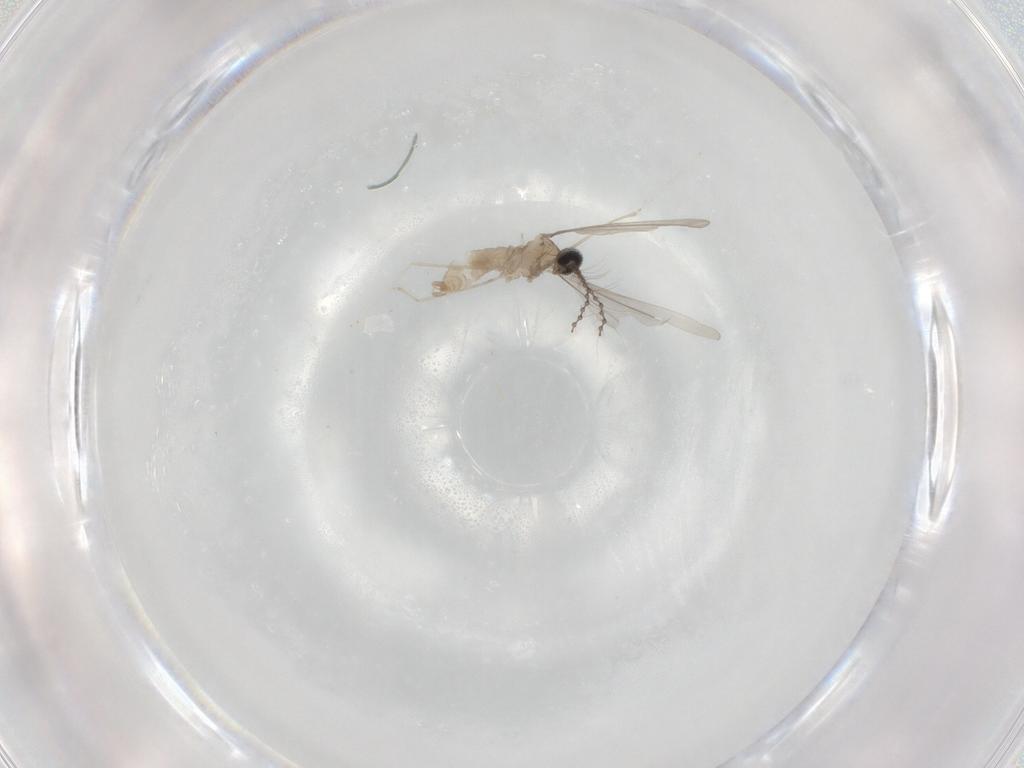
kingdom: Animalia
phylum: Arthropoda
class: Insecta
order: Diptera
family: Cecidomyiidae
